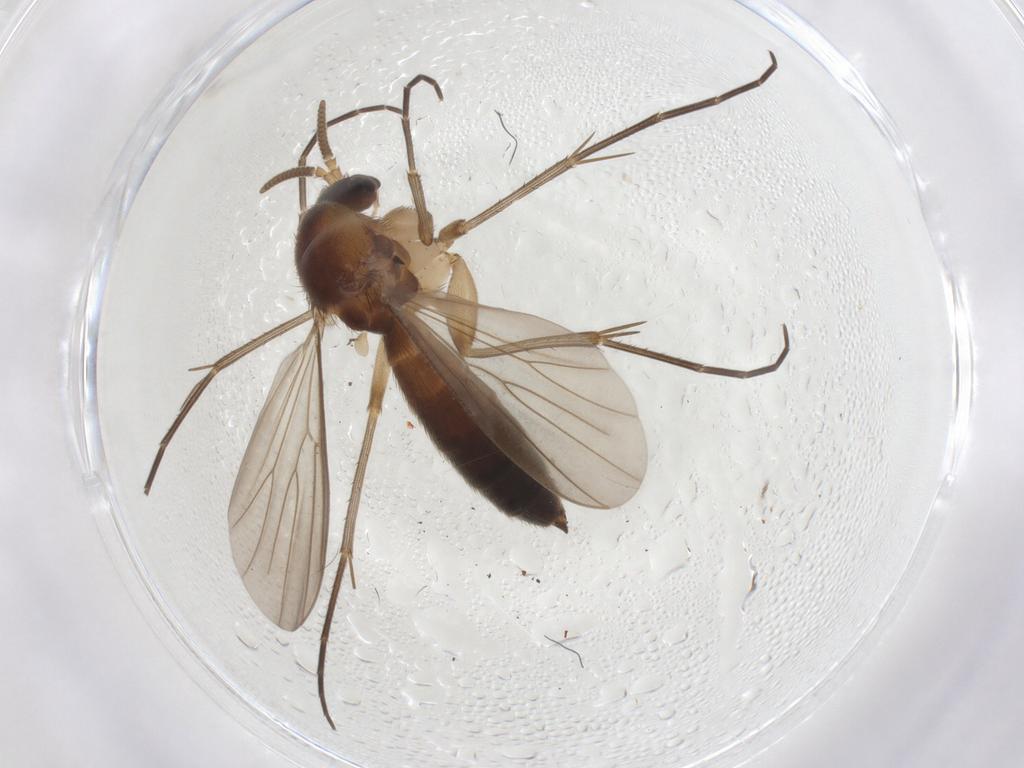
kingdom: Animalia
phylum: Arthropoda
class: Insecta
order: Diptera
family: Mycetophilidae
